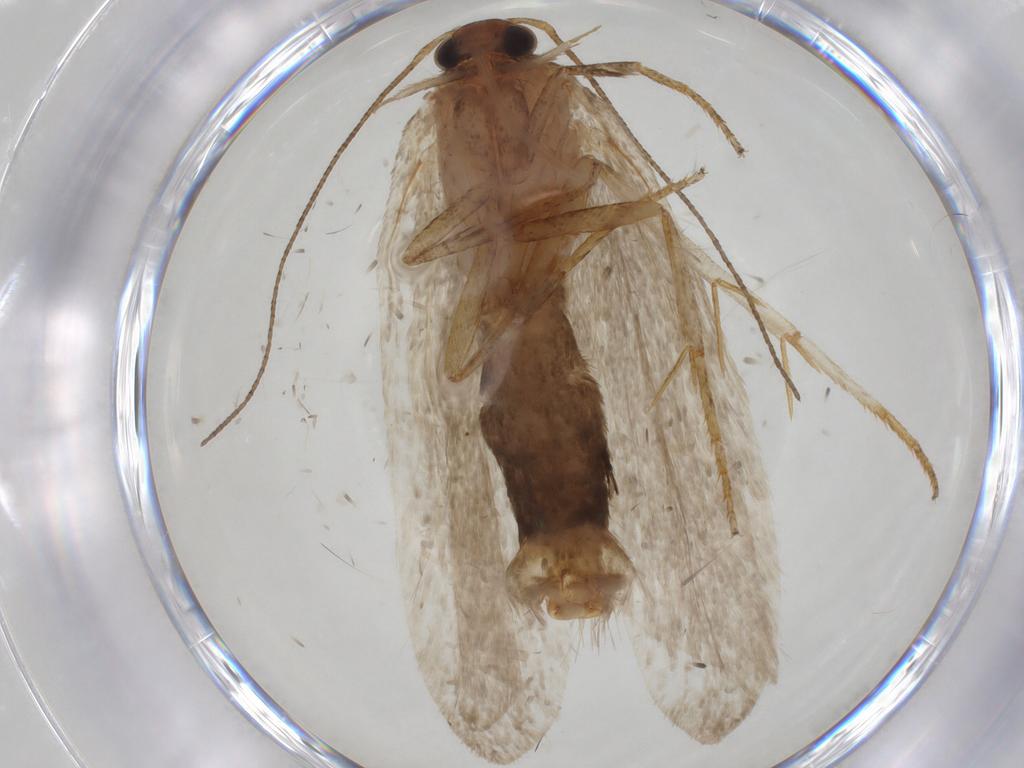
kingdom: Animalia
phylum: Arthropoda
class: Insecta
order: Lepidoptera
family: Gelechiidae
